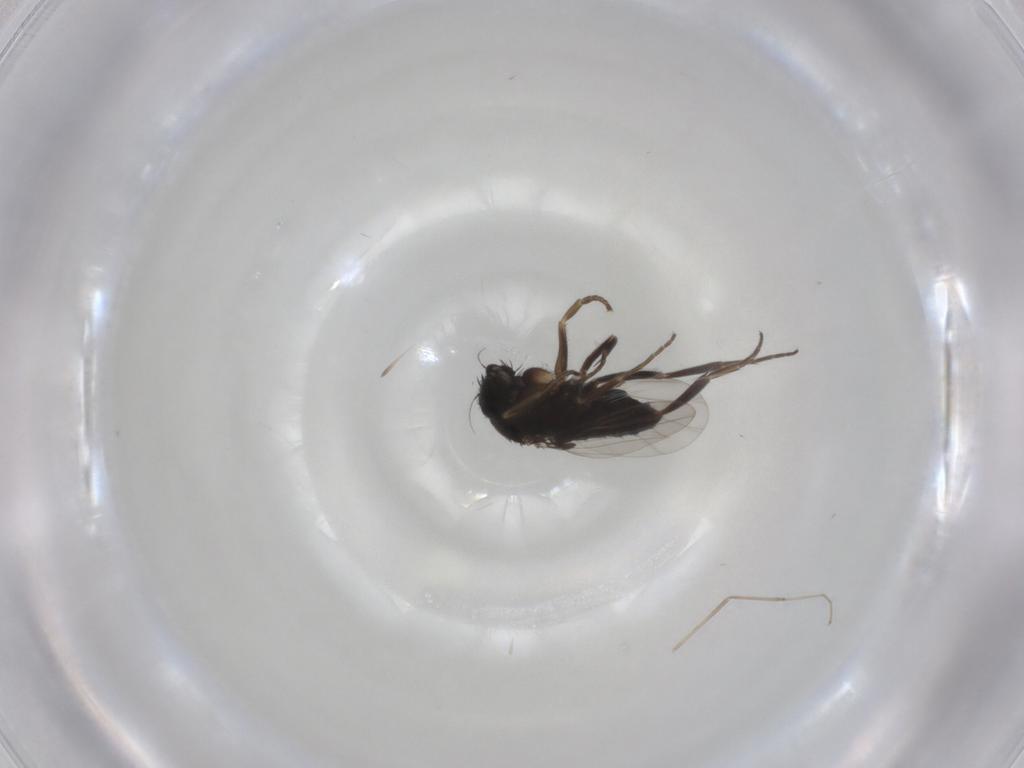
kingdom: Animalia
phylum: Arthropoda
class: Insecta
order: Diptera
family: Phoridae
